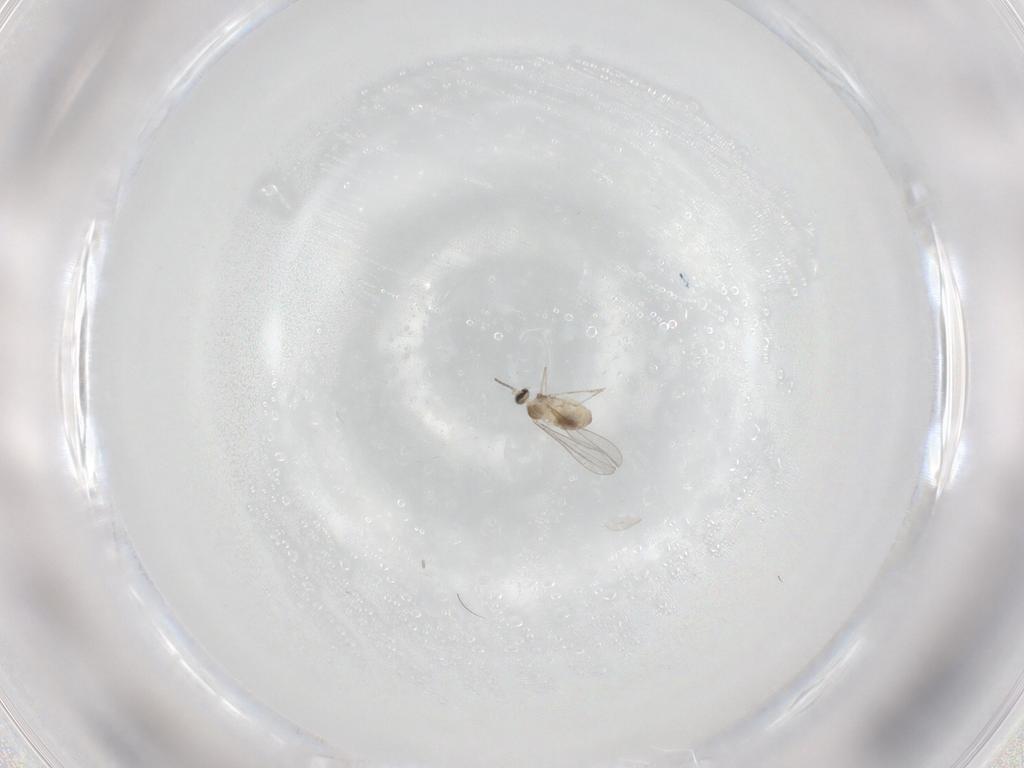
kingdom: Animalia
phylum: Arthropoda
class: Insecta
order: Diptera
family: Cecidomyiidae
